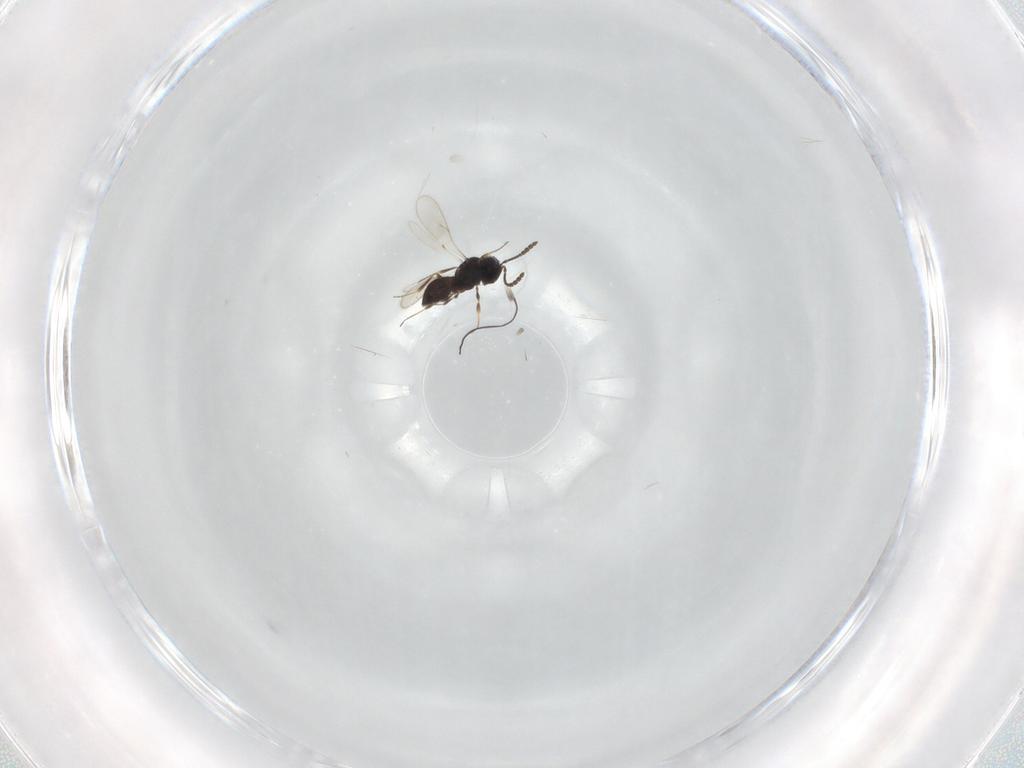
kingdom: Animalia
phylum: Arthropoda
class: Insecta
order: Hymenoptera
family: Scelionidae
